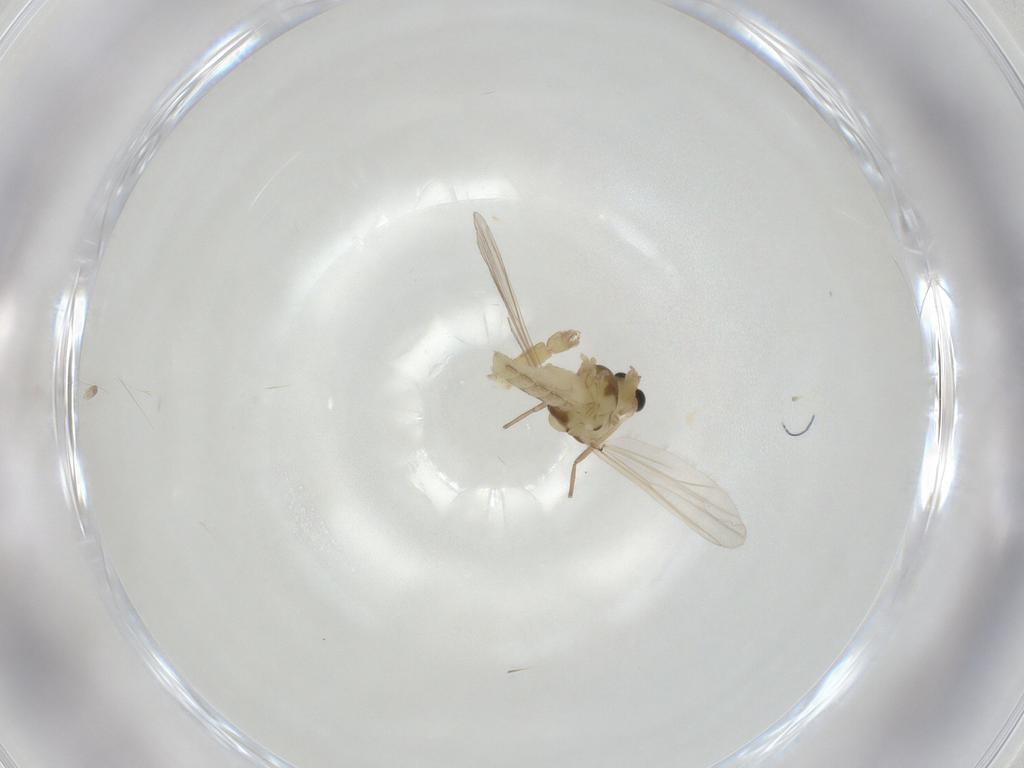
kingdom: Animalia
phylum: Arthropoda
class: Insecta
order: Diptera
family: Chironomidae
